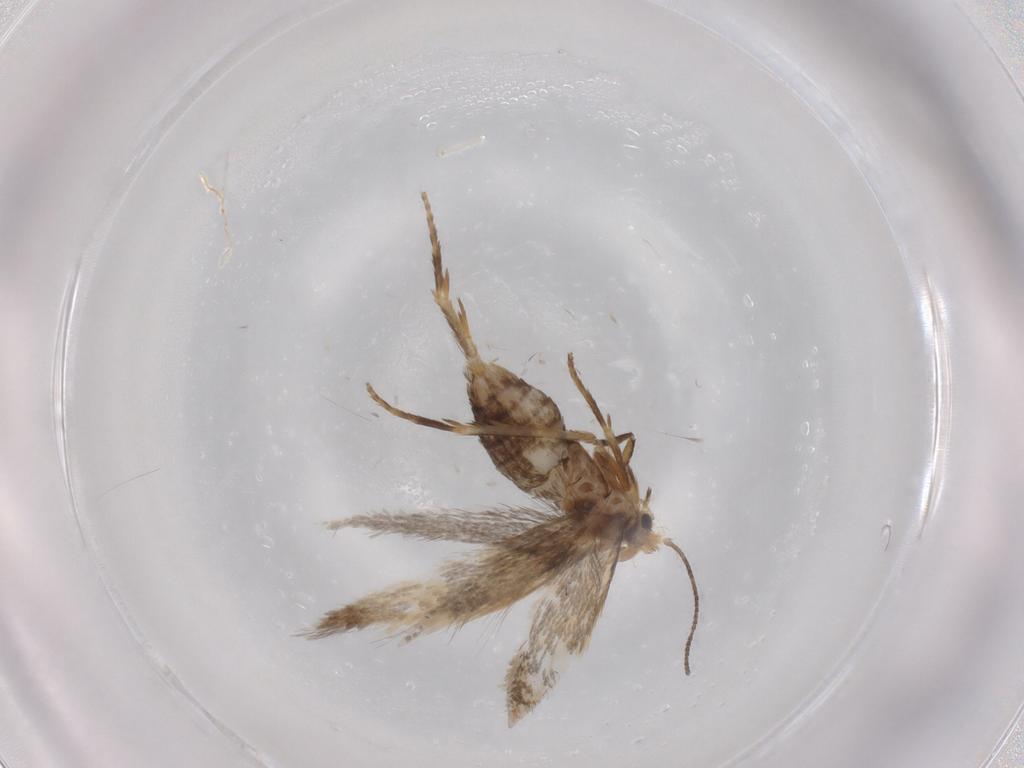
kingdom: Animalia
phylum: Arthropoda
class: Insecta
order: Lepidoptera
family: Nepticulidae
